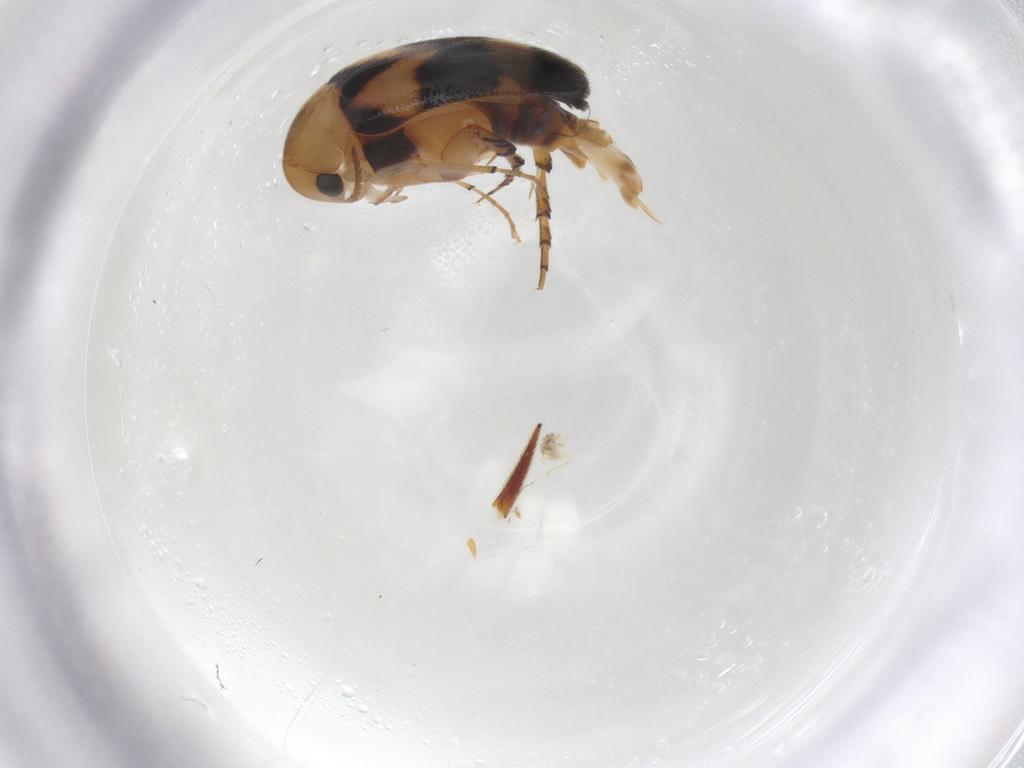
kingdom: Animalia
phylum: Arthropoda
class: Insecta
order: Coleoptera
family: Mordellidae
